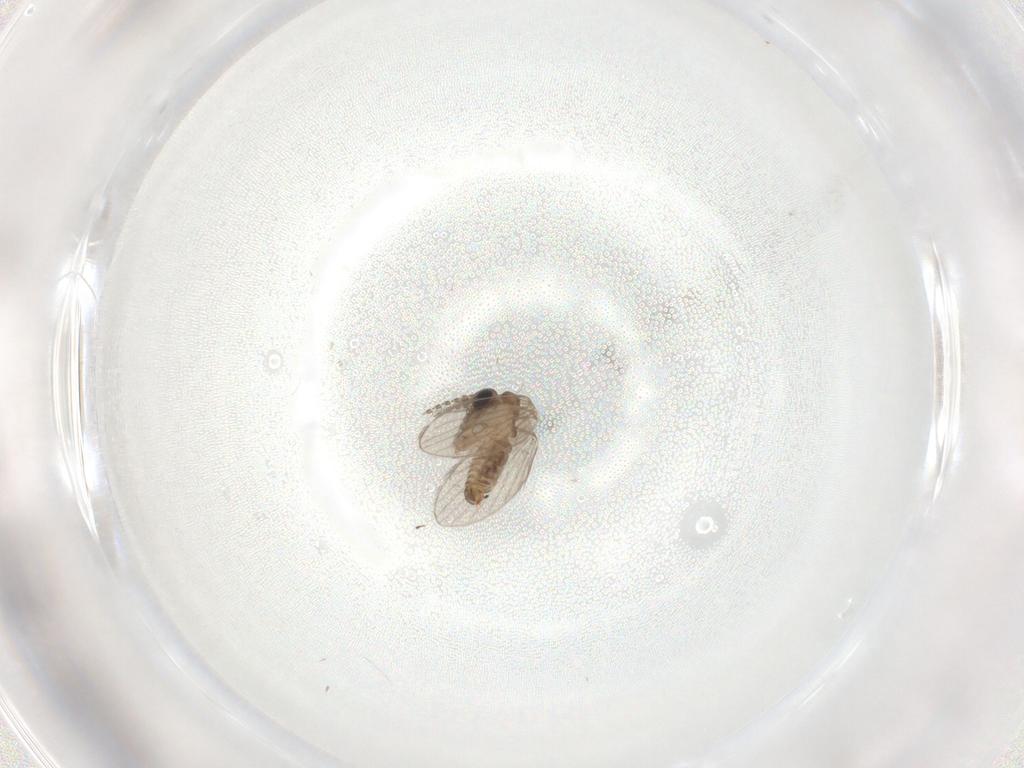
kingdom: Animalia
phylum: Arthropoda
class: Insecta
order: Diptera
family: Psychodidae
